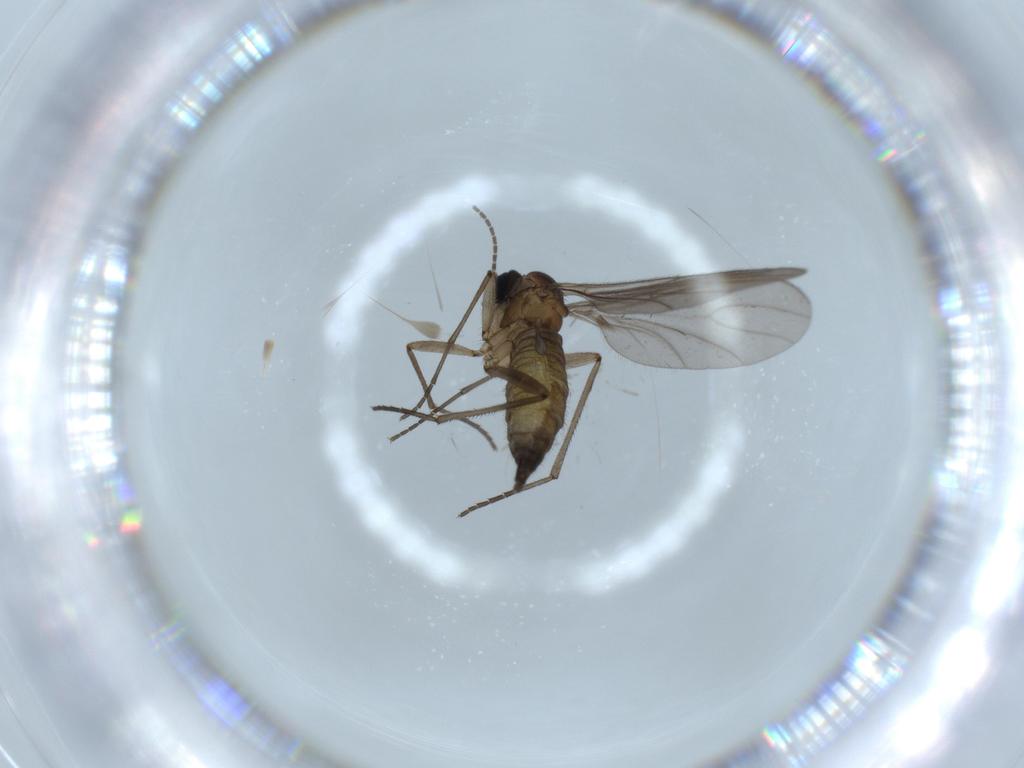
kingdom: Animalia
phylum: Arthropoda
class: Insecta
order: Diptera
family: Sciaridae
